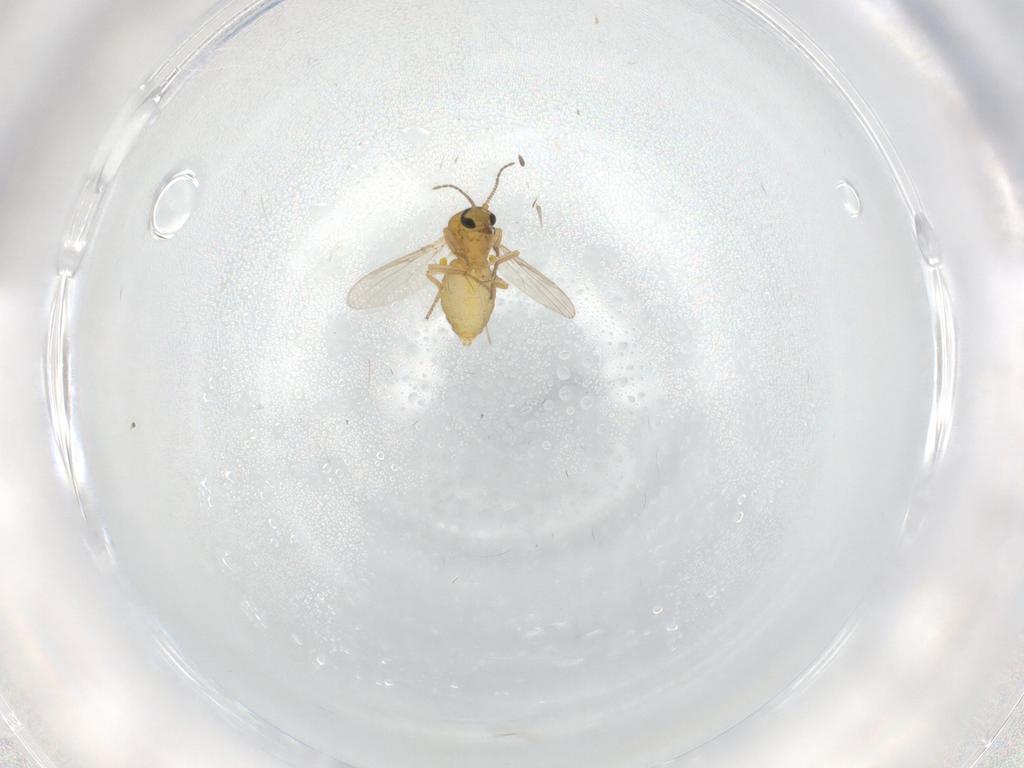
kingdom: Animalia
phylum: Arthropoda
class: Insecta
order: Diptera
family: Ceratopogonidae
